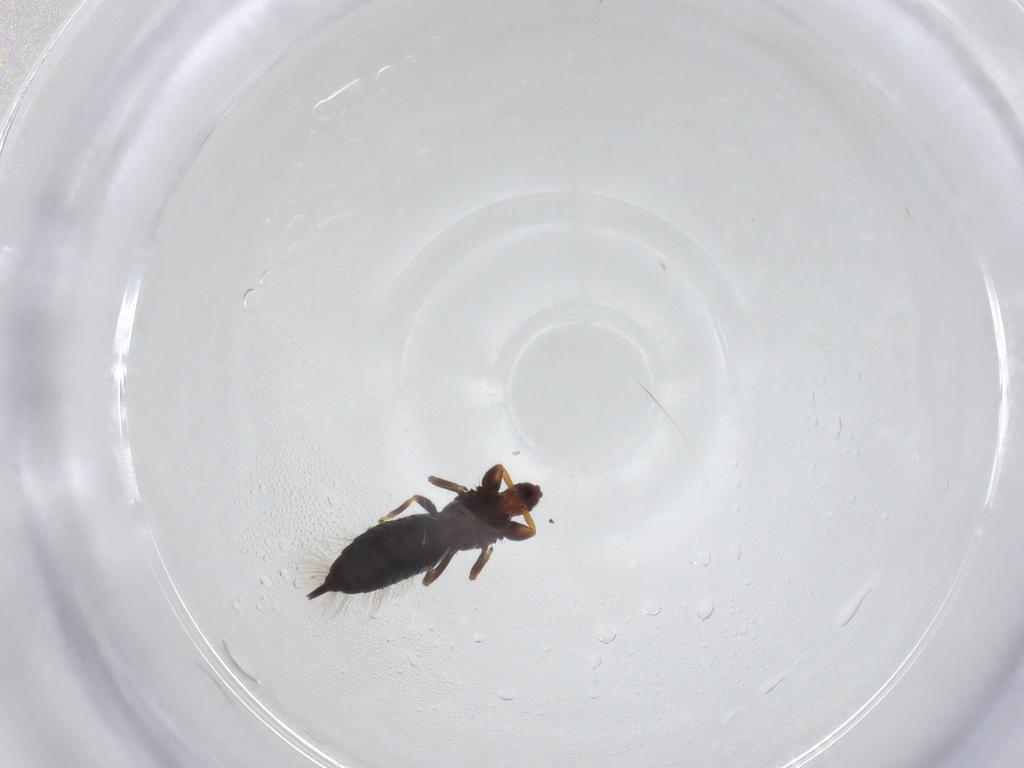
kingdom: Animalia
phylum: Arthropoda
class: Insecta
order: Thysanoptera
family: Phlaeothripidae
